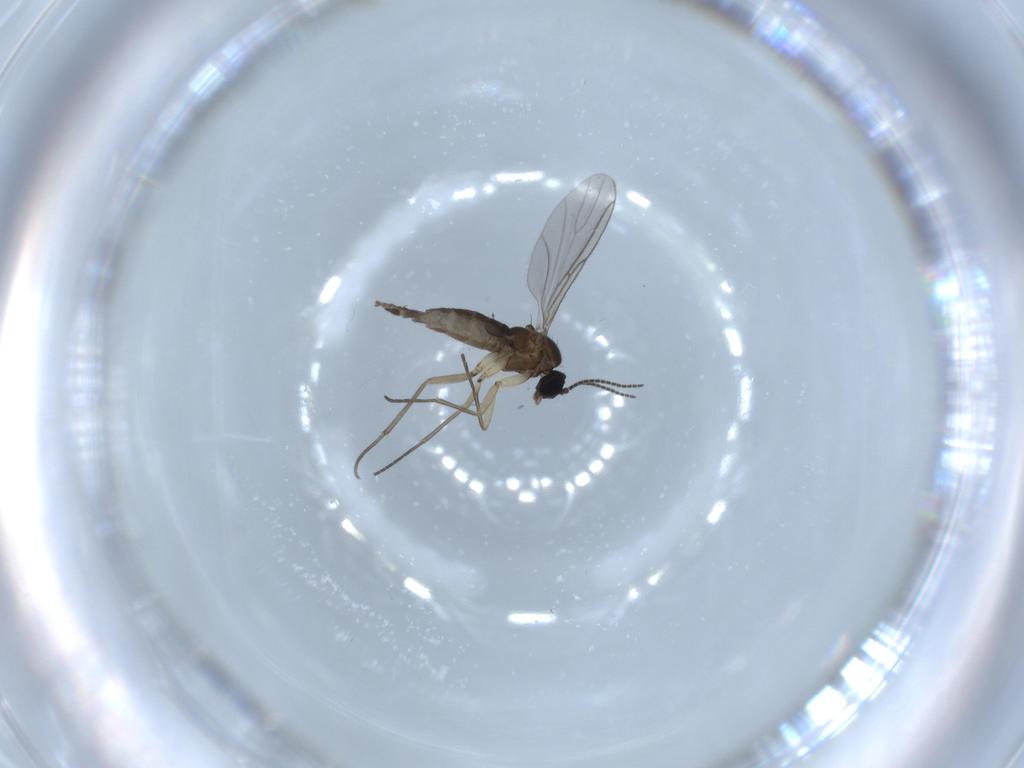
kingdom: Animalia
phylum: Arthropoda
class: Insecta
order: Diptera
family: Sciaridae
